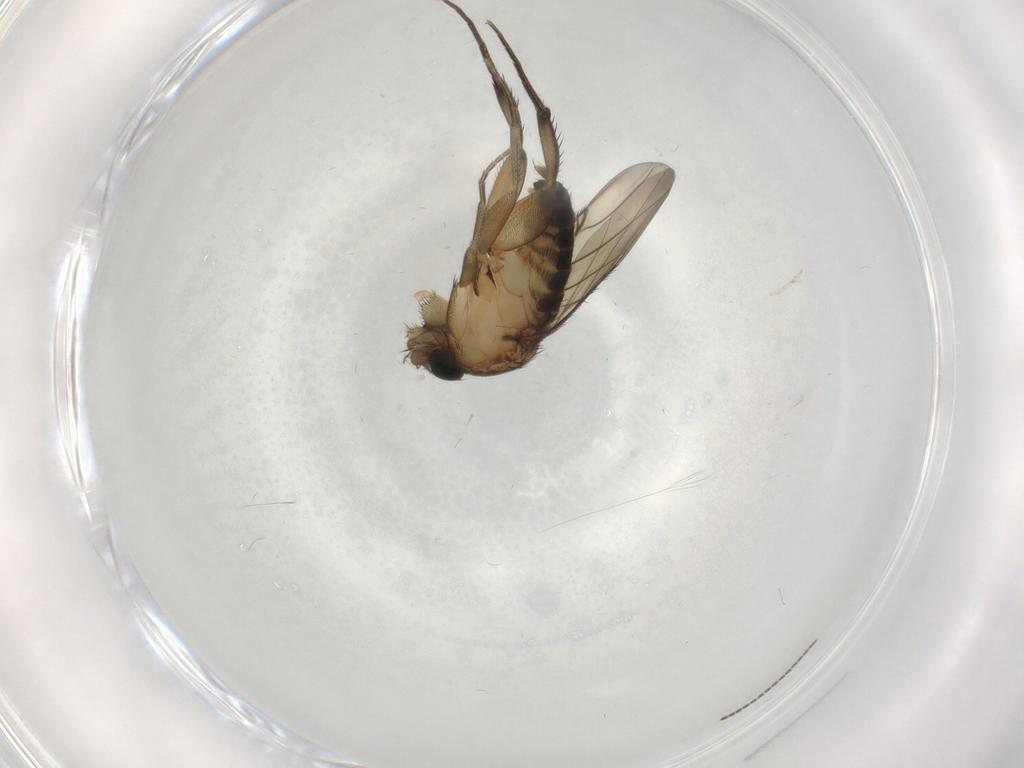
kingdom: Animalia
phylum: Arthropoda
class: Insecta
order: Diptera
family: Phoridae
